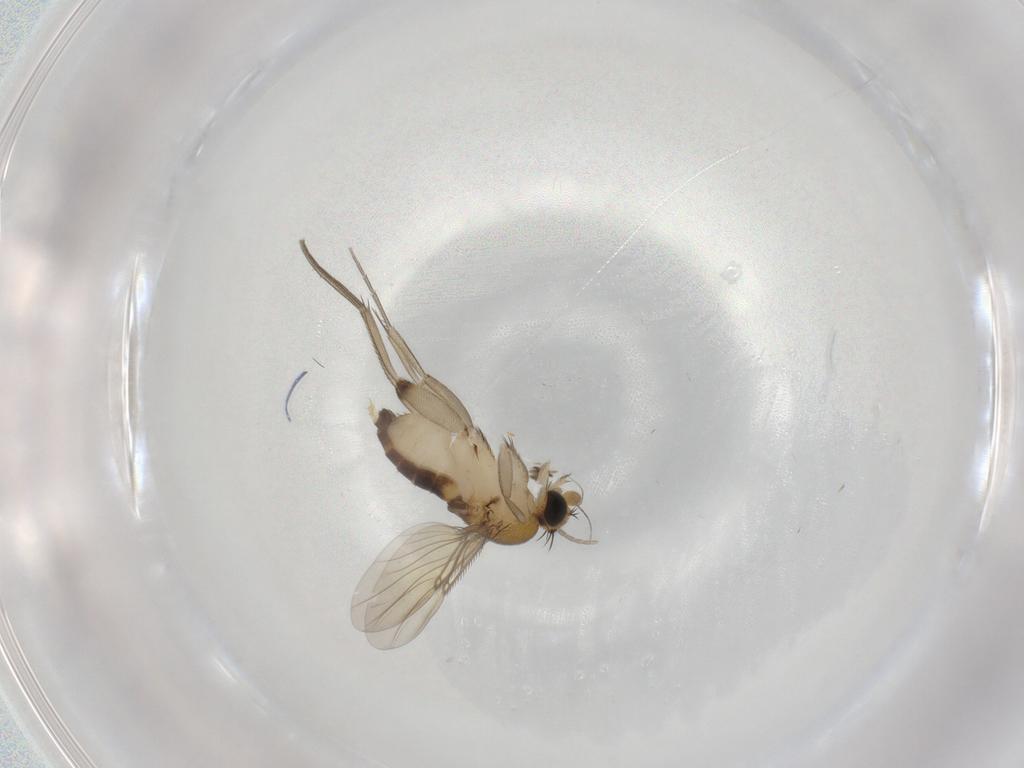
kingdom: Animalia
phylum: Arthropoda
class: Insecta
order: Diptera
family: Phoridae
